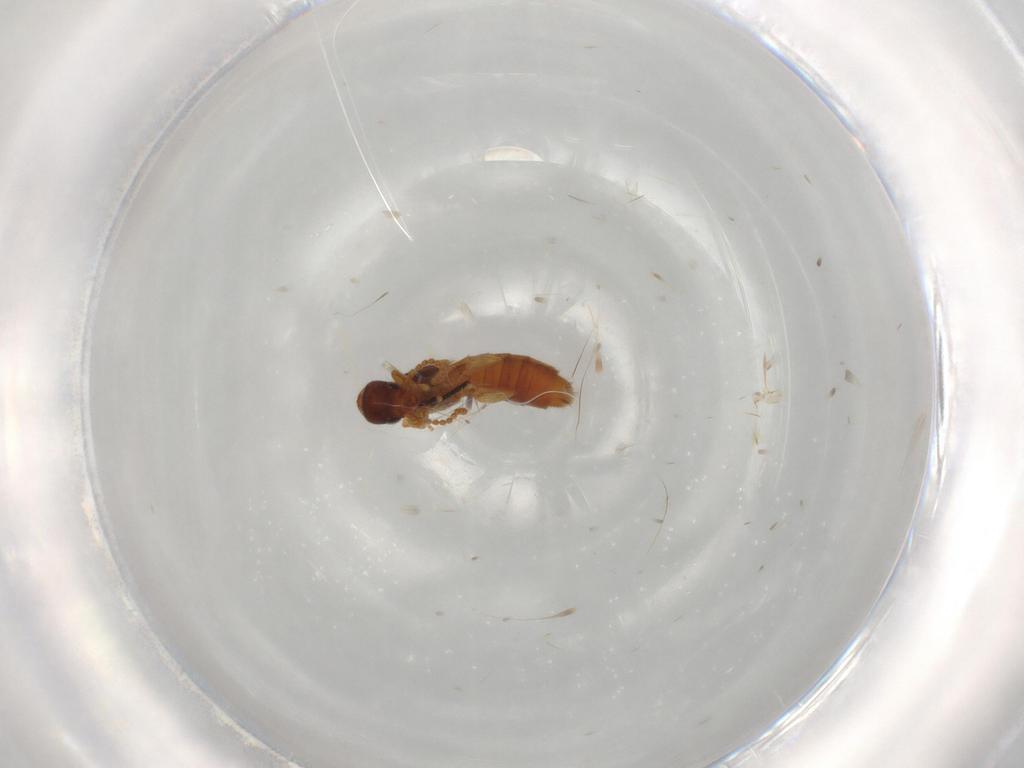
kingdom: Animalia
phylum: Arthropoda
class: Insecta
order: Coleoptera
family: Staphylinidae
